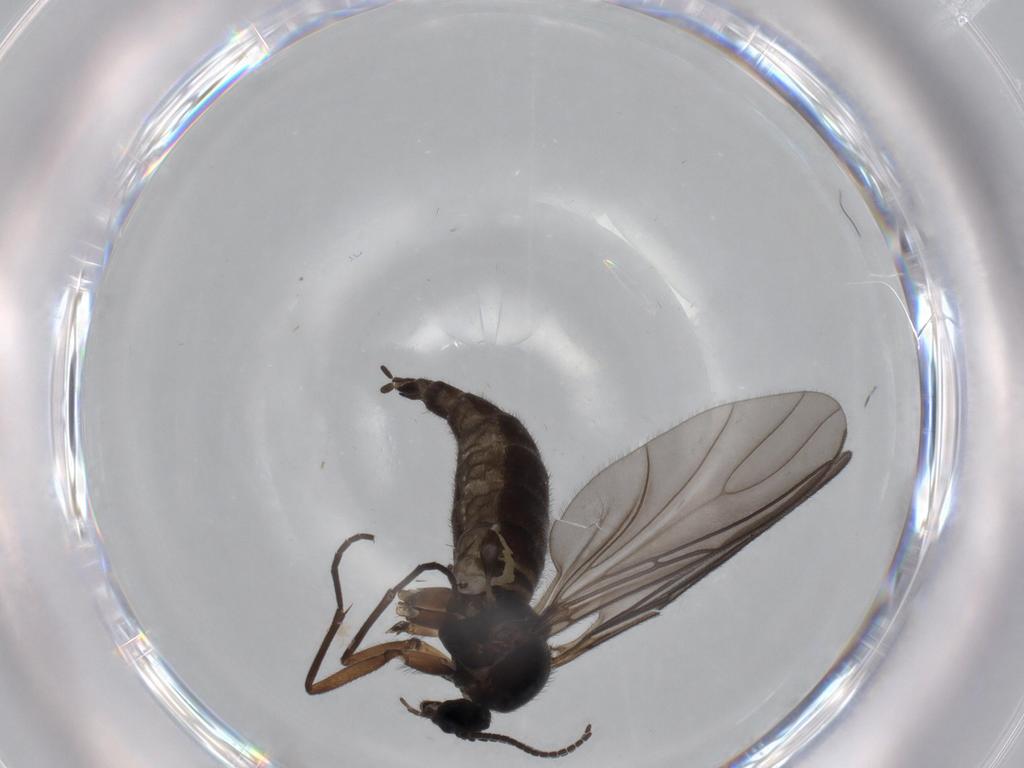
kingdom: Animalia
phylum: Arthropoda
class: Insecta
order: Diptera
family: Sciaridae
